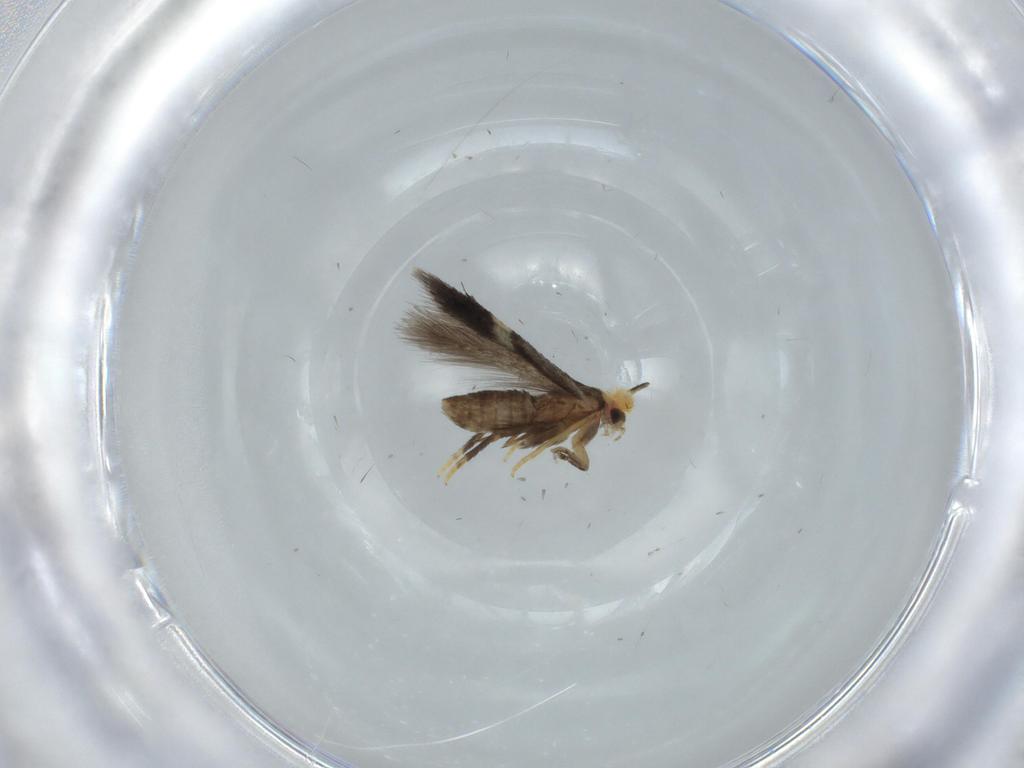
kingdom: Animalia
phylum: Arthropoda
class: Insecta
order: Lepidoptera
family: Nepticulidae
